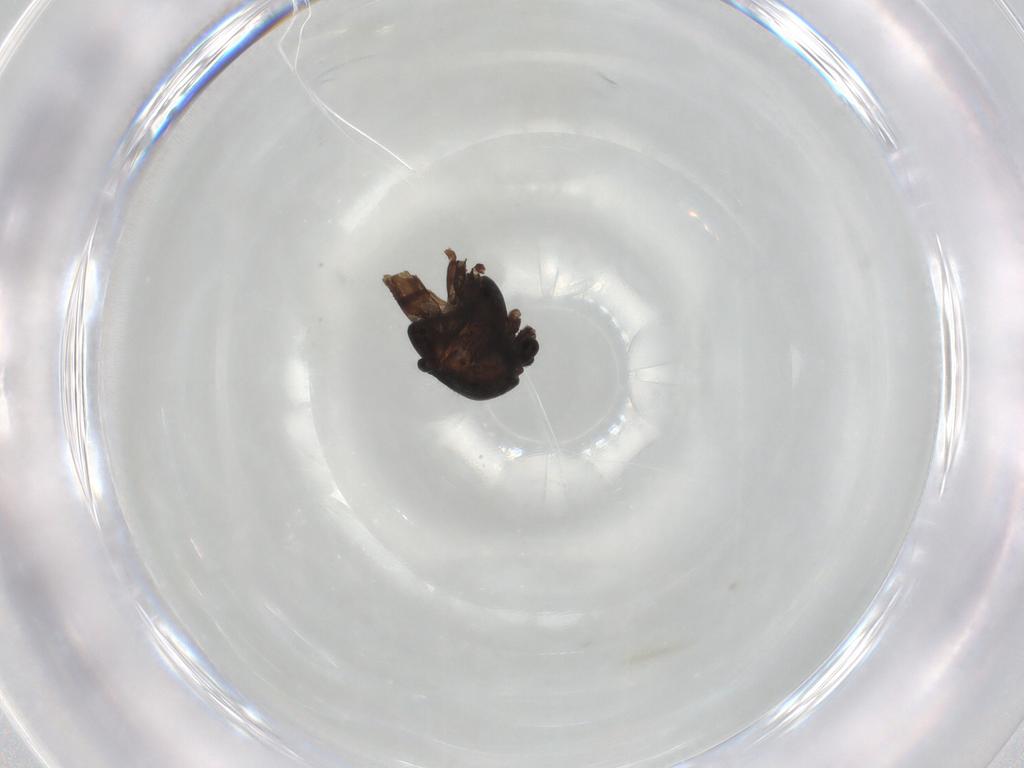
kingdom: Animalia
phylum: Arthropoda
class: Insecta
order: Diptera
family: Chironomidae
